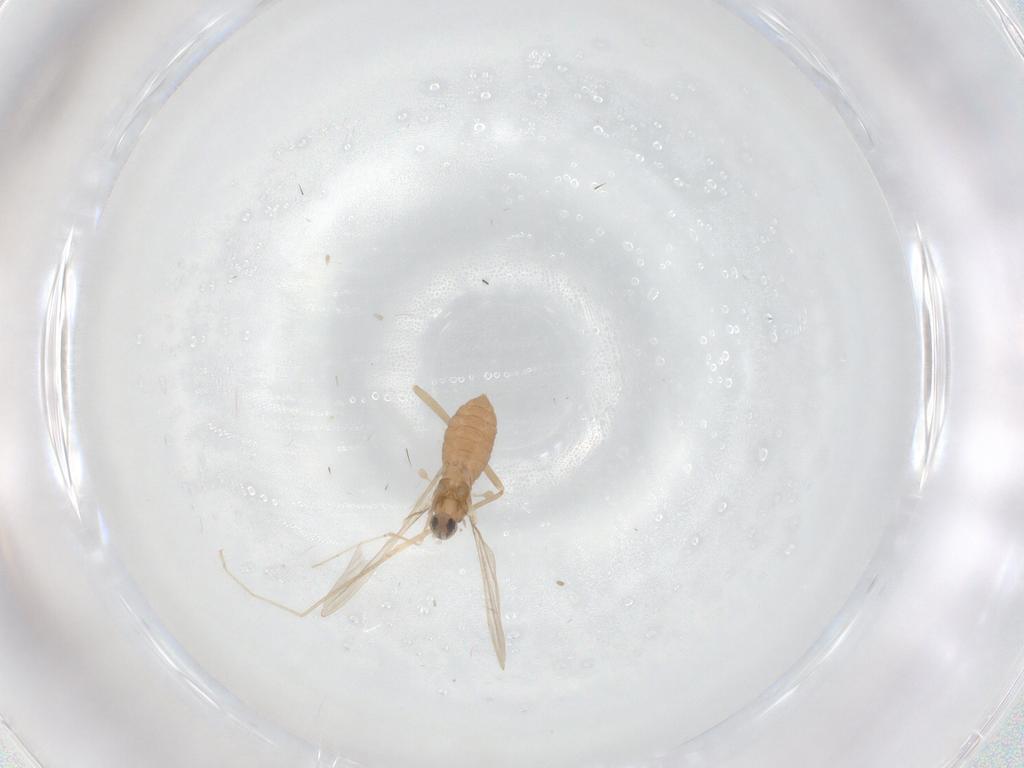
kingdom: Animalia
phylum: Arthropoda
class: Insecta
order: Diptera
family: Cecidomyiidae
